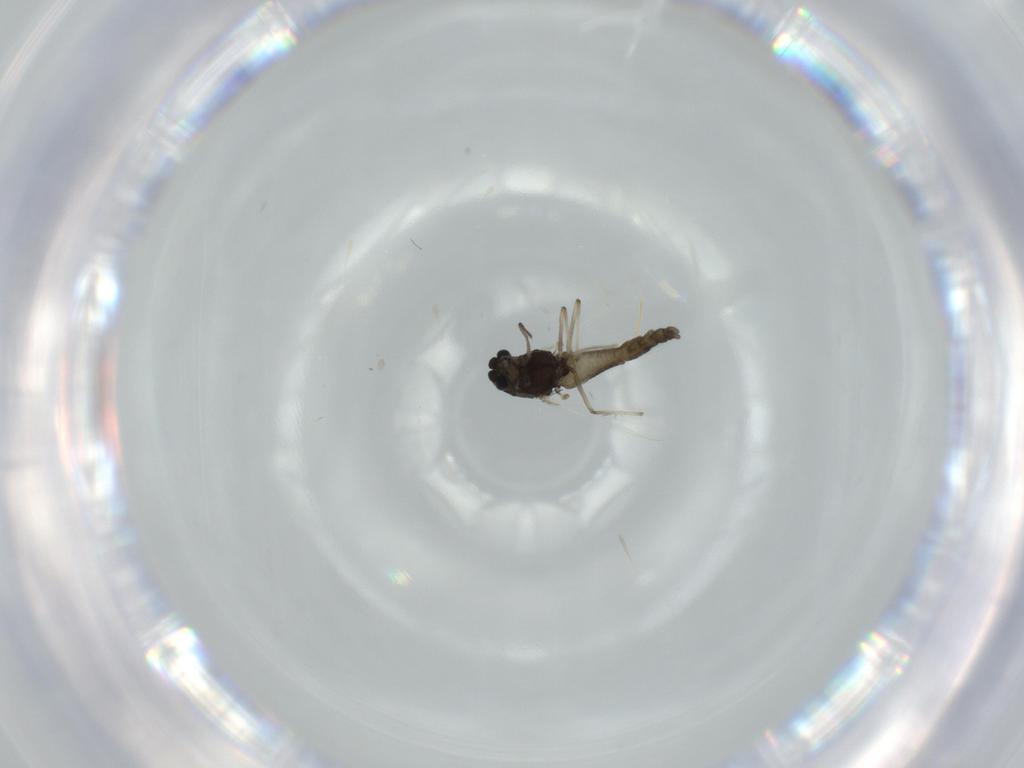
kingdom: Animalia
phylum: Arthropoda
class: Insecta
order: Diptera
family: Chironomidae
